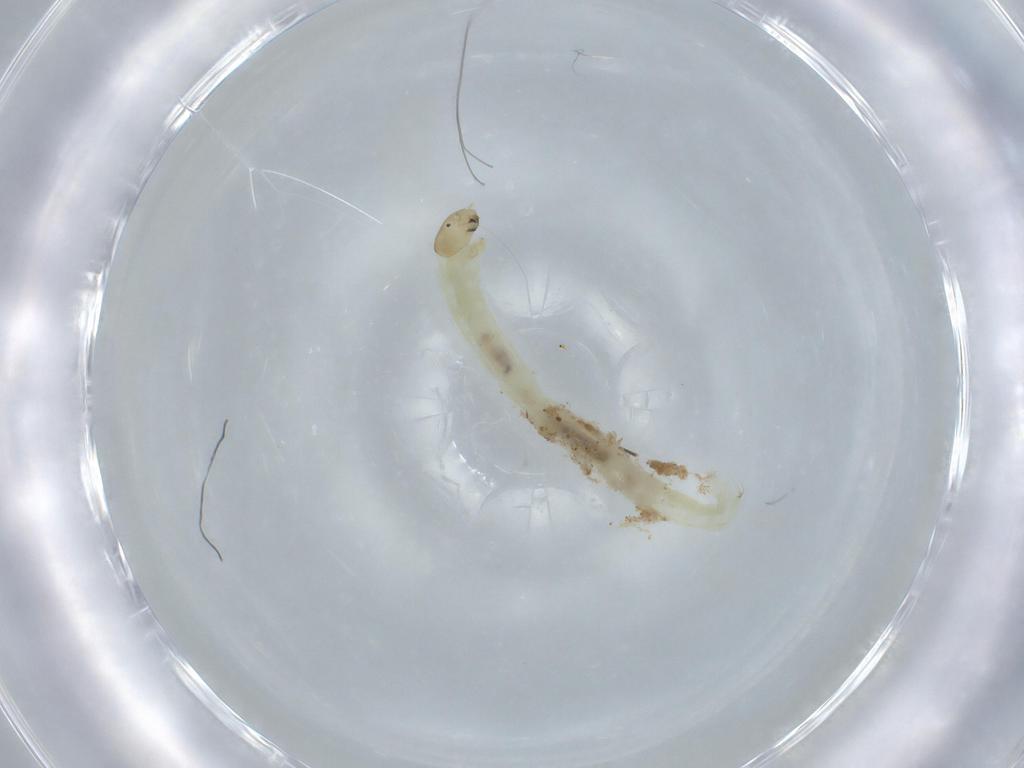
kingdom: Animalia
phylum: Arthropoda
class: Insecta
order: Diptera
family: Chironomidae
